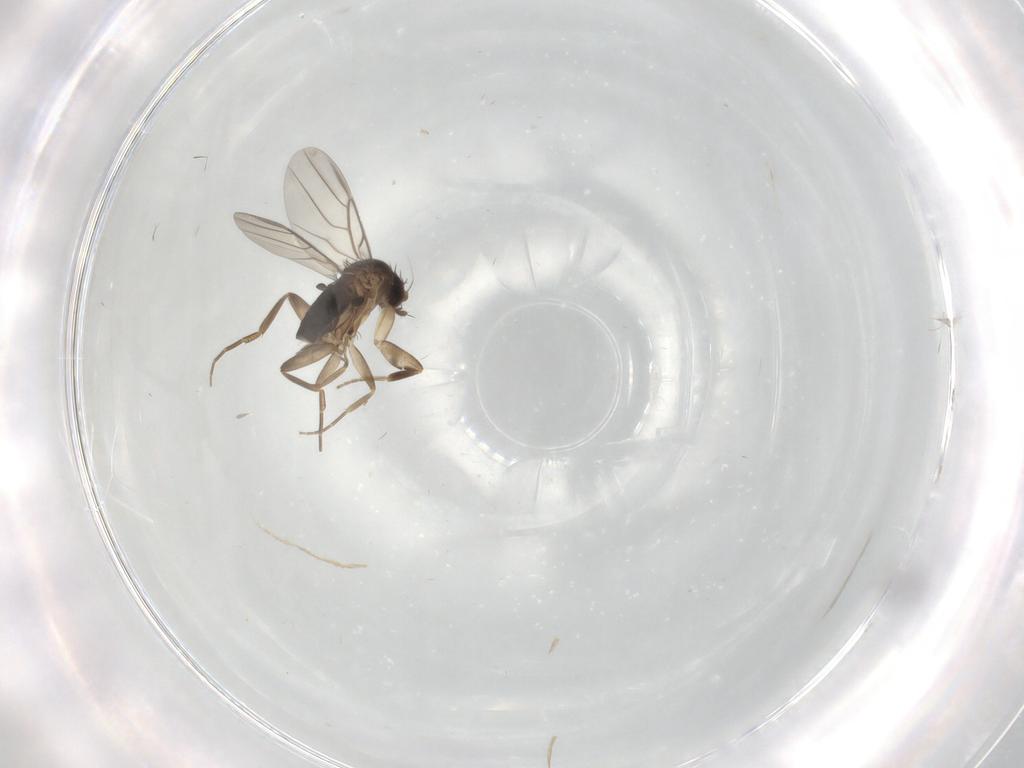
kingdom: Animalia
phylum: Arthropoda
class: Insecta
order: Diptera
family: Phoridae
